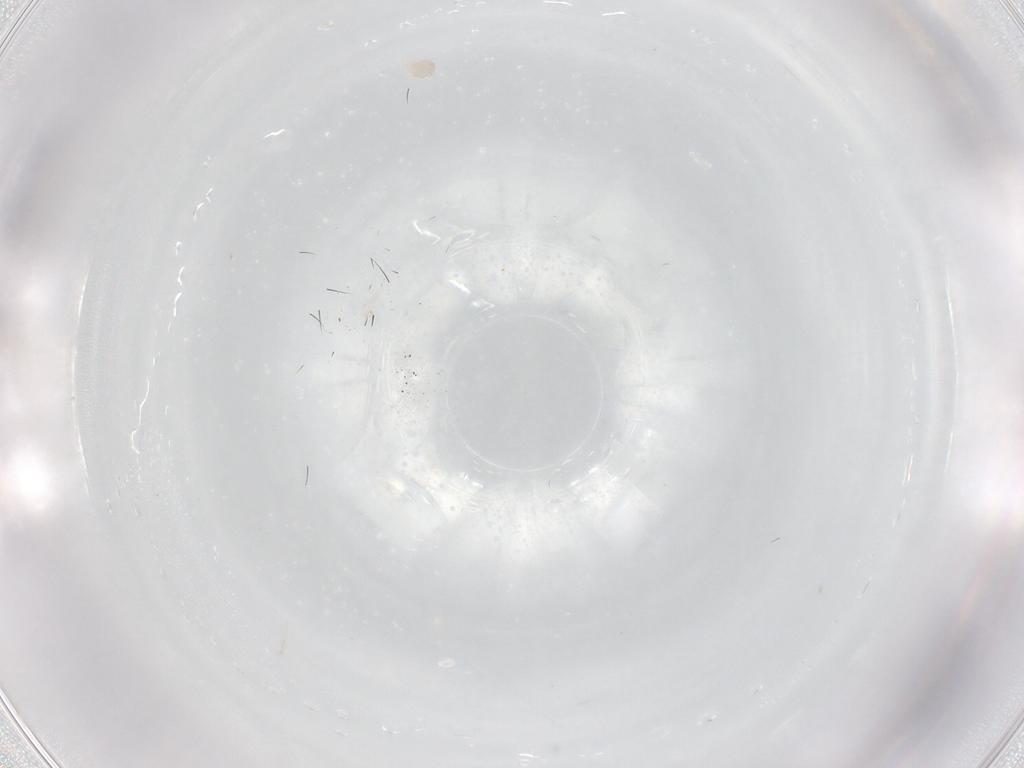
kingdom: Animalia
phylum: Arthropoda
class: Insecta
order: Lepidoptera
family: Gelechiidae
